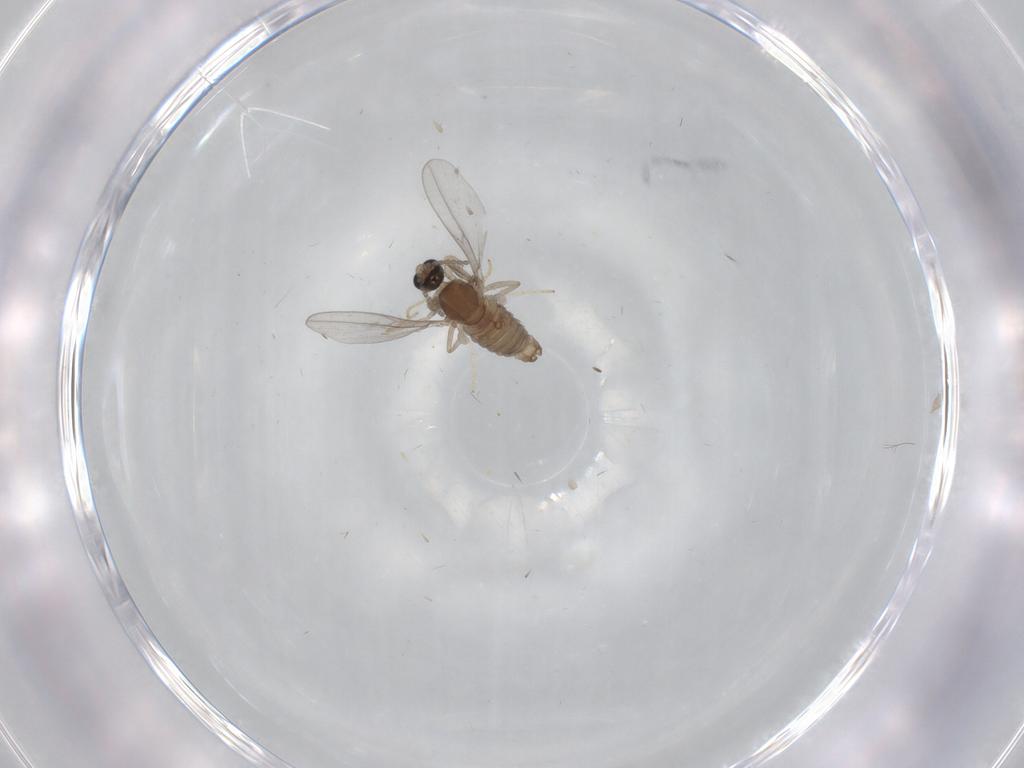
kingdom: Animalia
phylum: Arthropoda
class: Insecta
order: Diptera
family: Cecidomyiidae
